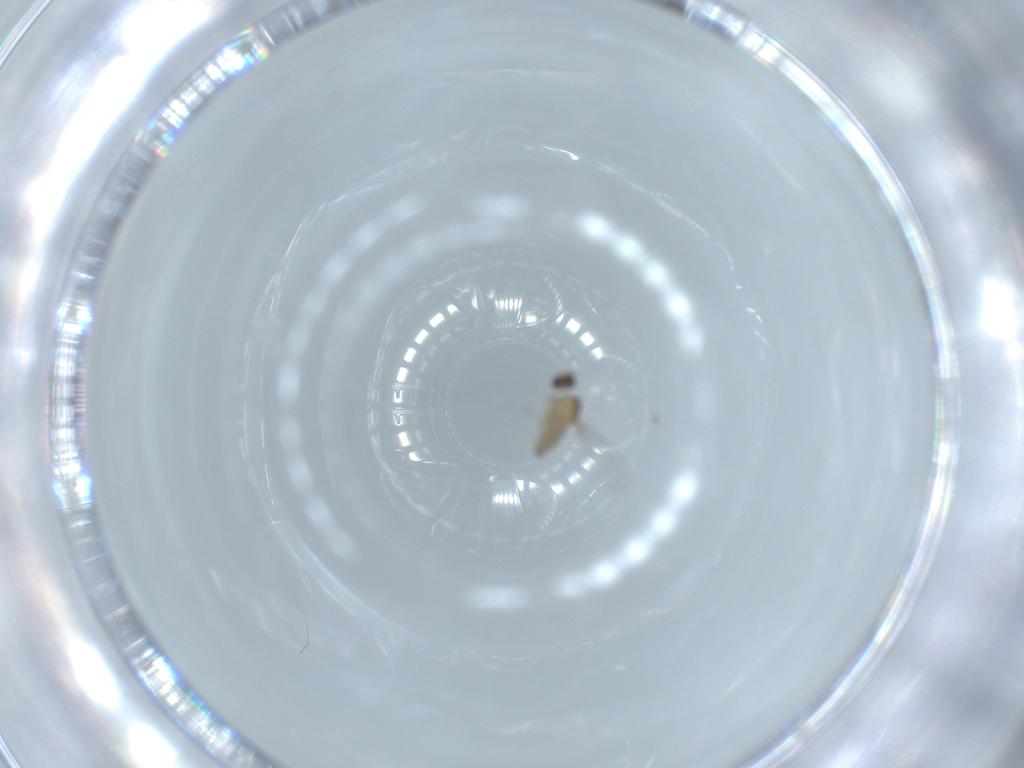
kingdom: Animalia
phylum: Arthropoda
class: Insecta
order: Diptera
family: Cecidomyiidae
